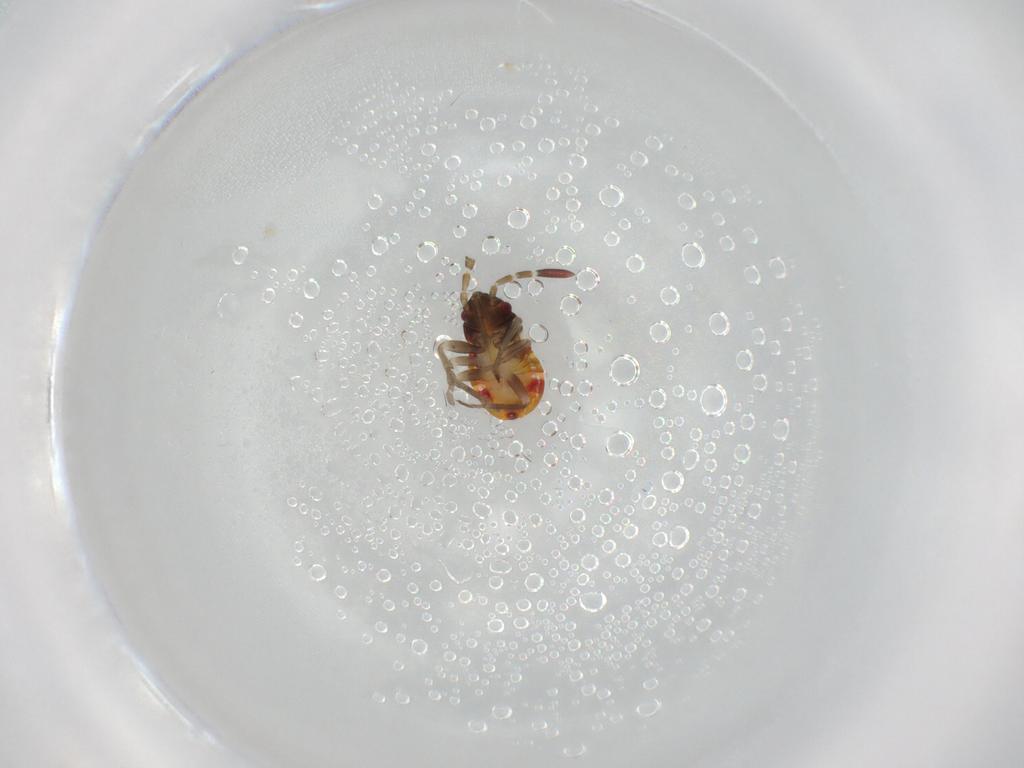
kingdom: Animalia
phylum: Arthropoda
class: Insecta
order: Hemiptera
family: Rhyparochromidae
